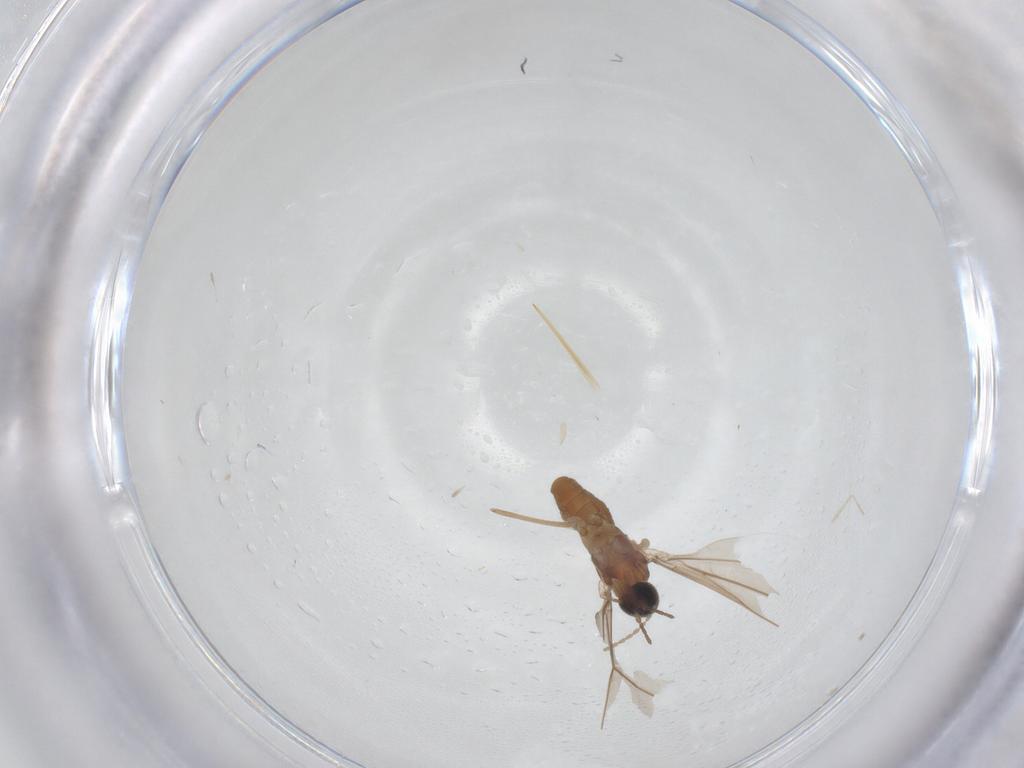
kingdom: Animalia
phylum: Arthropoda
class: Insecta
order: Diptera
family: Cecidomyiidae
